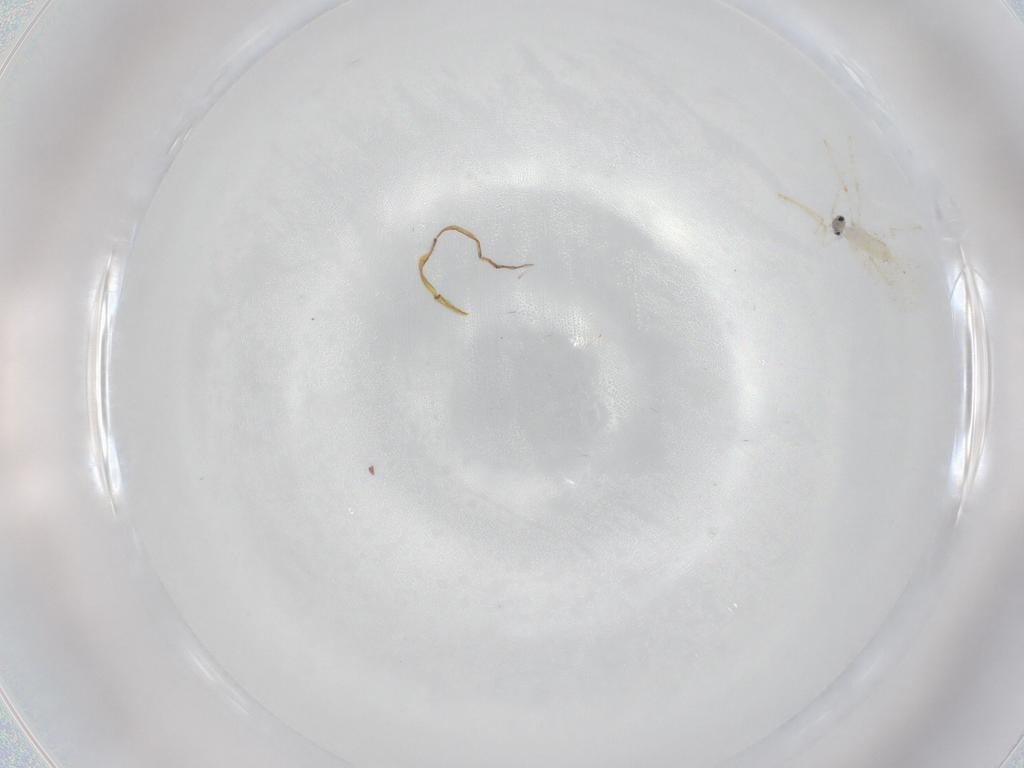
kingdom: Animalia
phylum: Arthropoda
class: Insecta
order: Diptera
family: Cecidomyiidae
